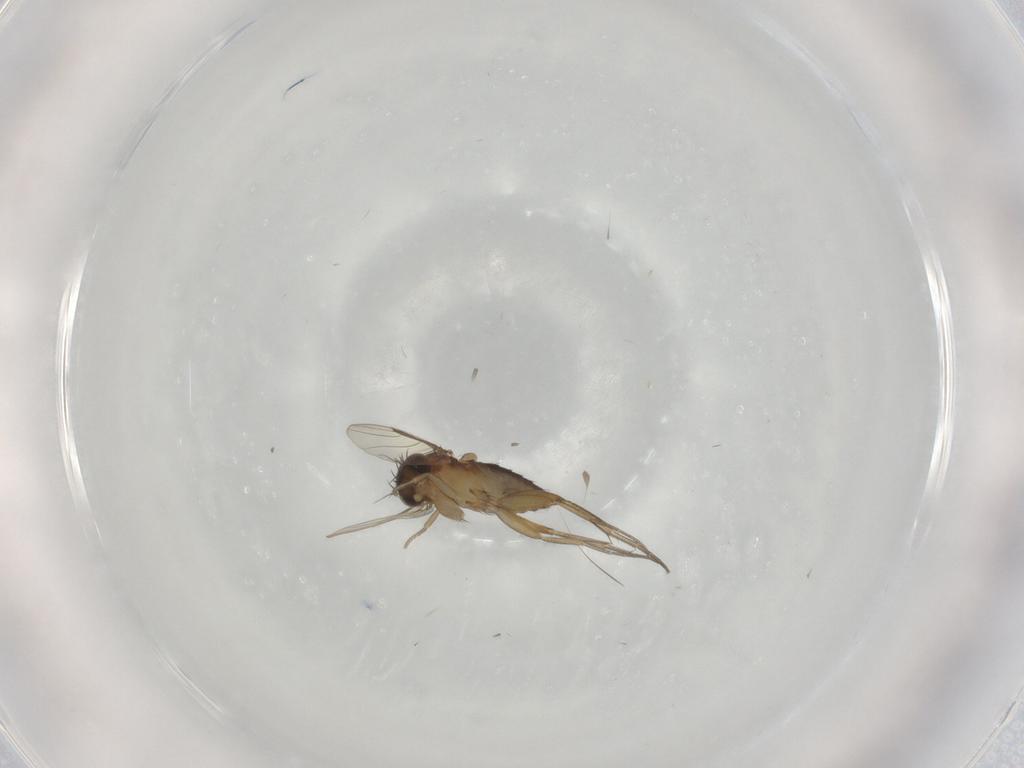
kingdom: Animalia
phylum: Arthropoda
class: Insecta
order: Diptera
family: Phoridae
